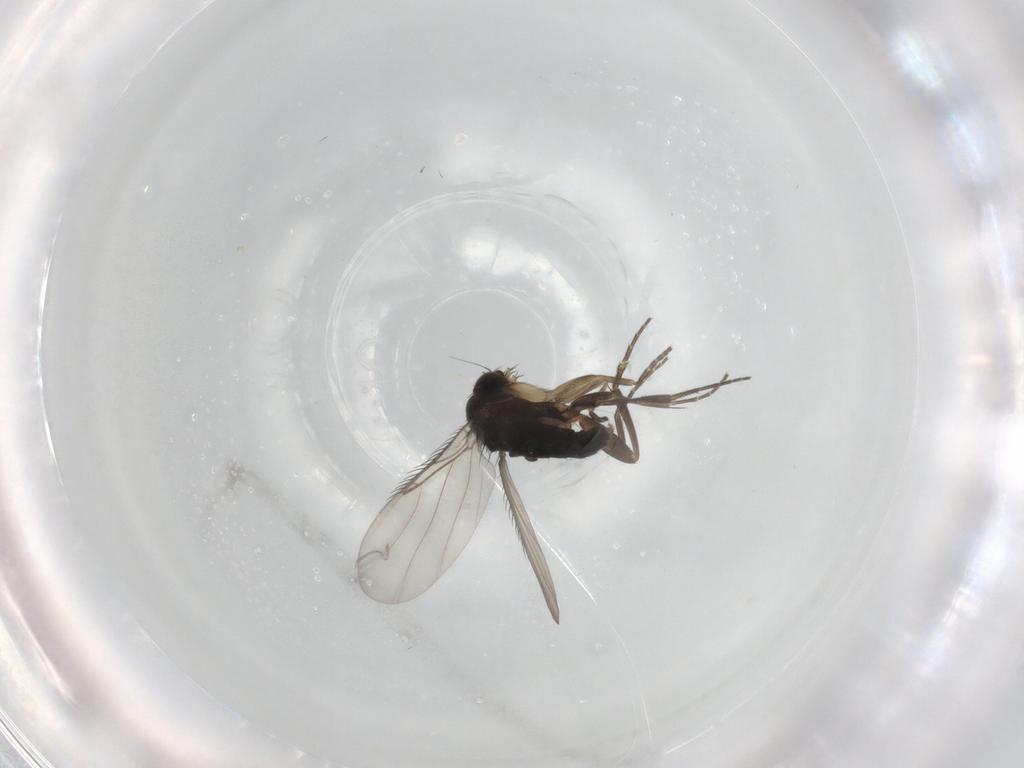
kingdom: Animalia
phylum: Arthropoda
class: Insecta
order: Diptera
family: Phoridae
